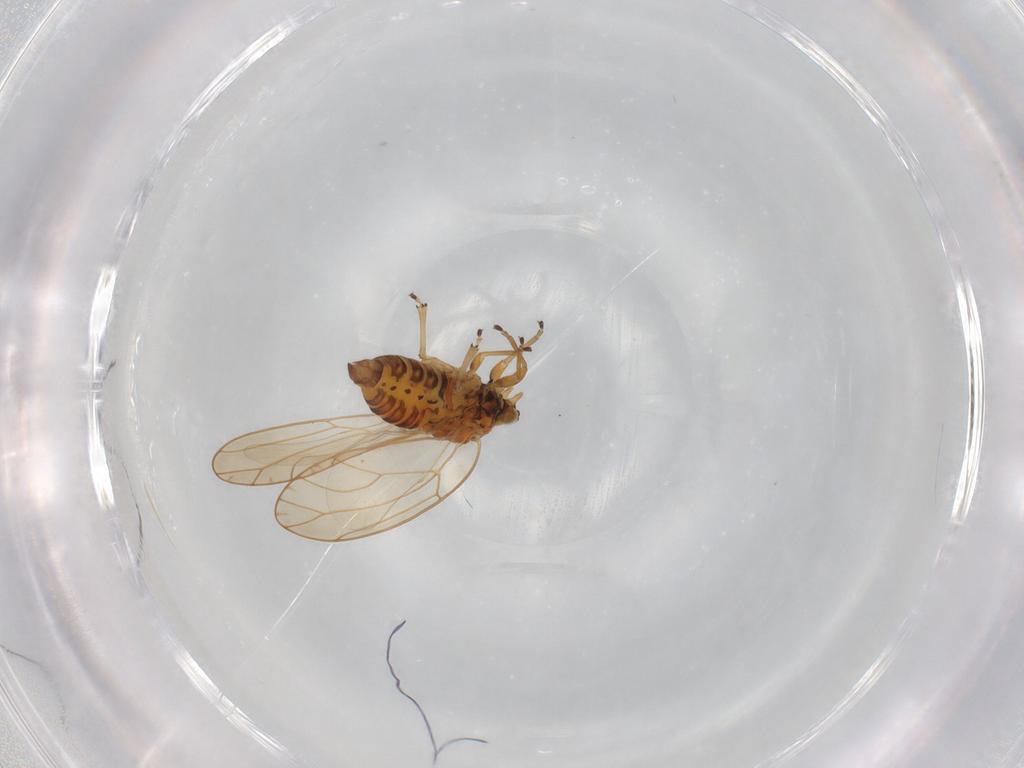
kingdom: Animalia
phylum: Arthropoda
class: Insecta
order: Hemiptera
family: Triozidae
